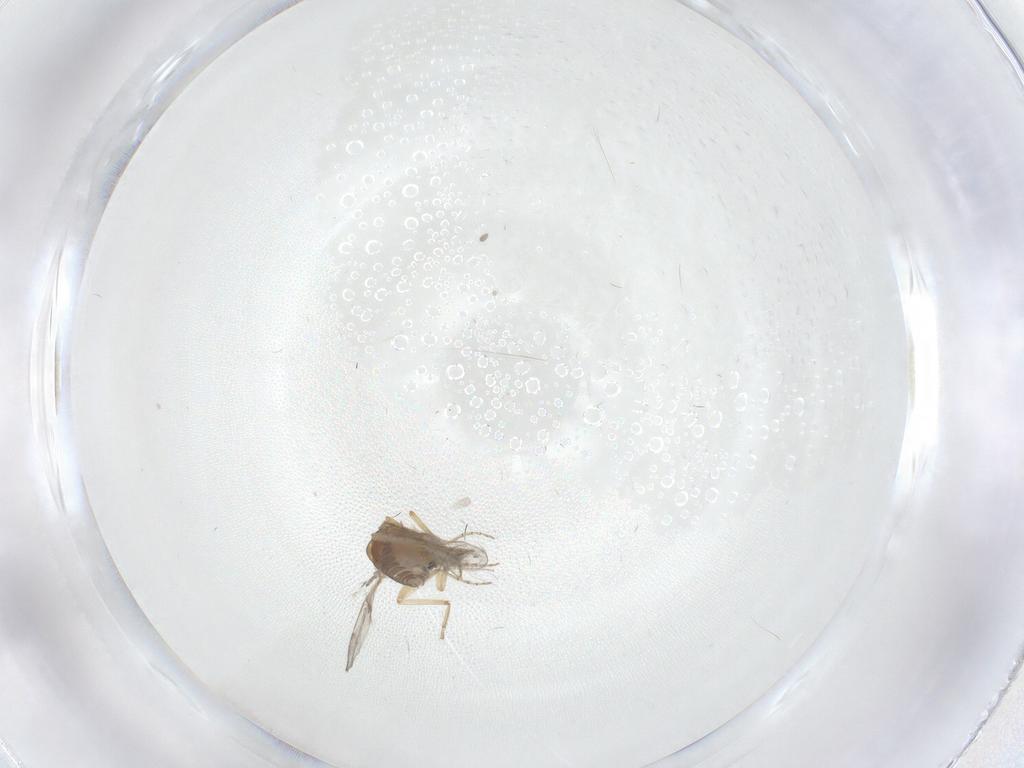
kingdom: Animalia
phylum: Arthropoda
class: Insecta
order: Diptera
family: Ceratopogonidae
